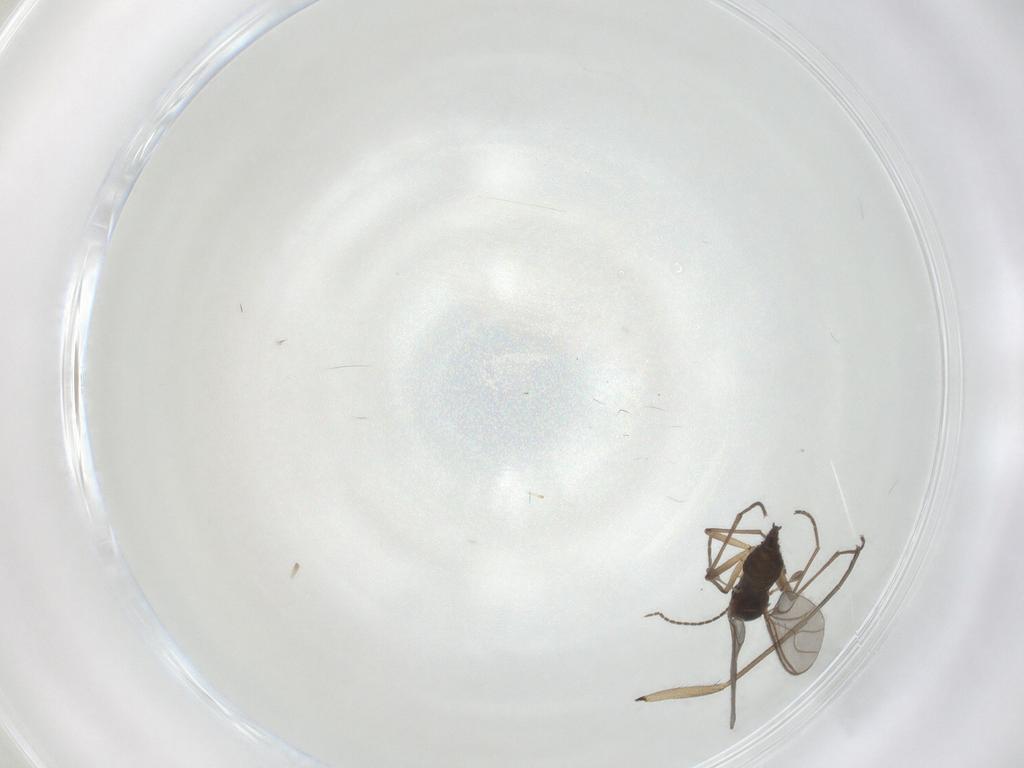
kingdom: Animalia
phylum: Arthropoda
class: Insecta
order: Diptera
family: Sciaridae
